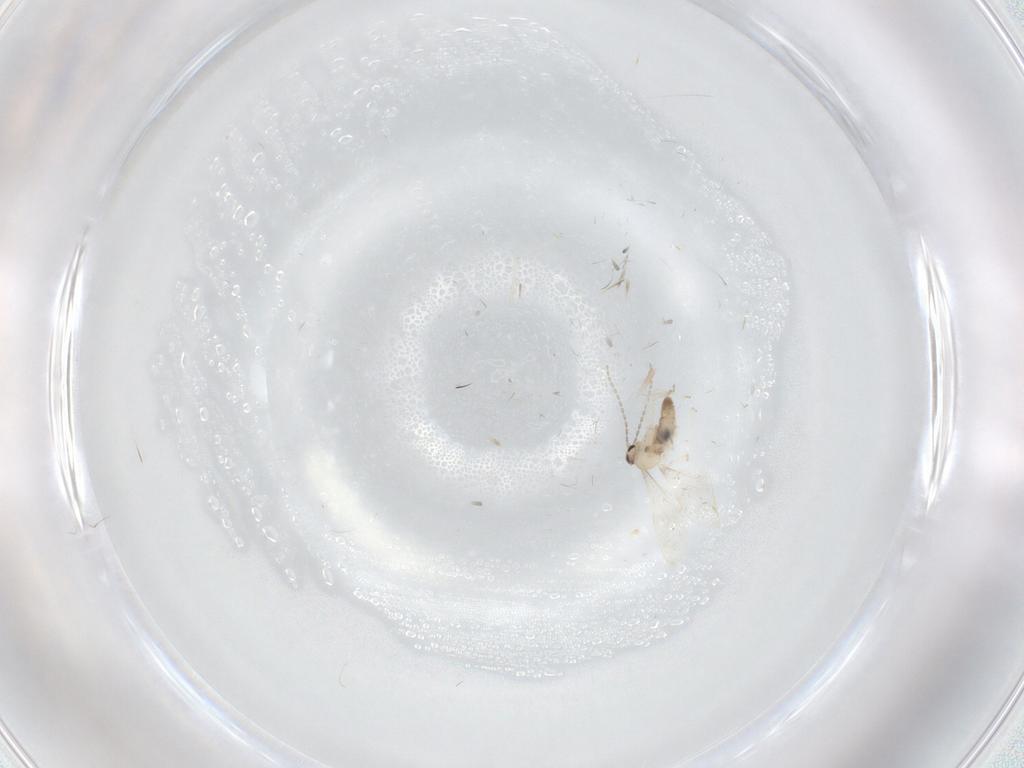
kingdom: Animalia
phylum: Arthropoda
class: Insecta
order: Diptera
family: Cecidomyiidae
